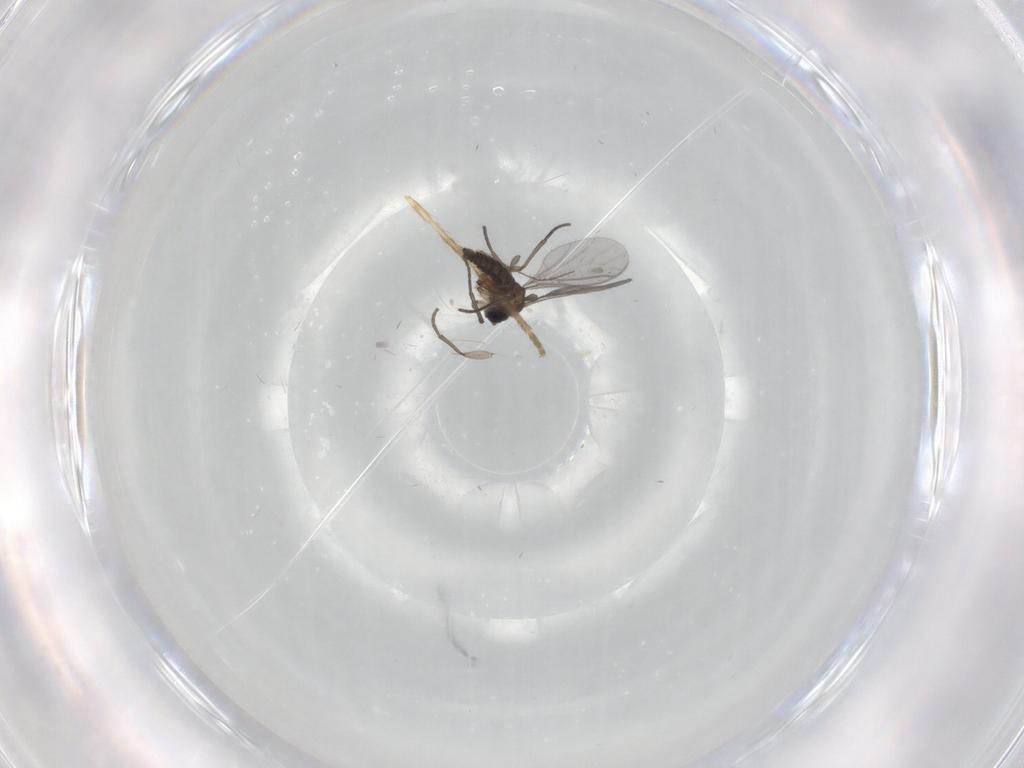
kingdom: Animalia
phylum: Arthropoda
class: Insecta
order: Diptera
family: Sciaridae
